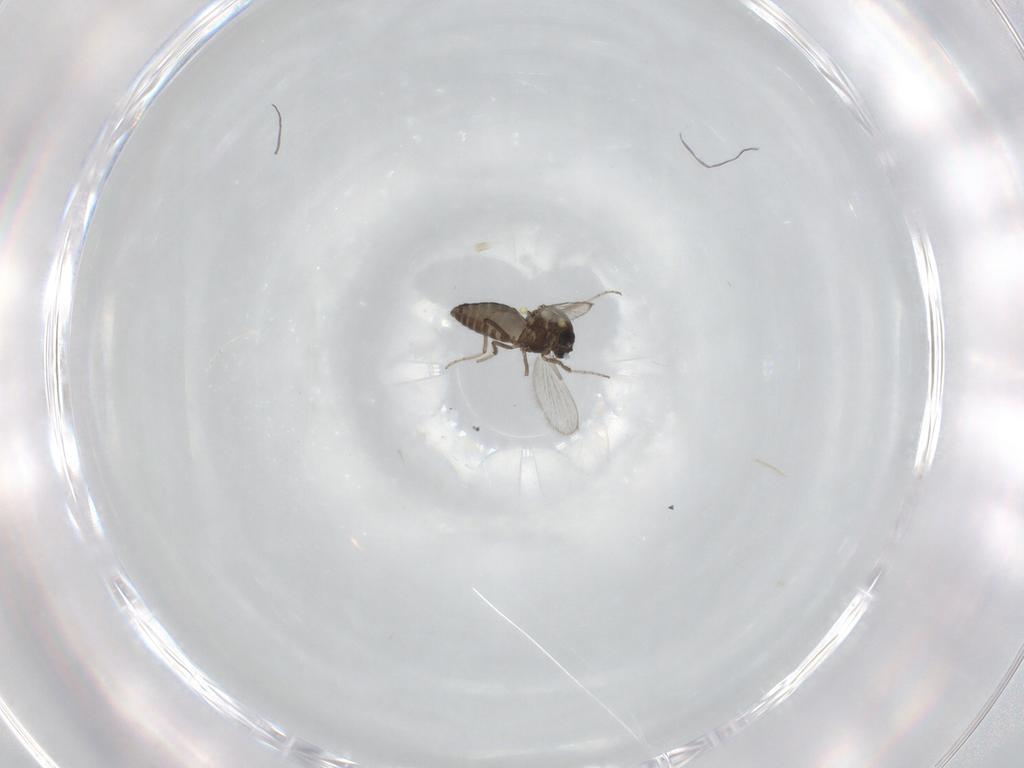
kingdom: Animalia
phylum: Arthropoda
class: Insecta
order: Diptera
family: Ceratopogonidae
